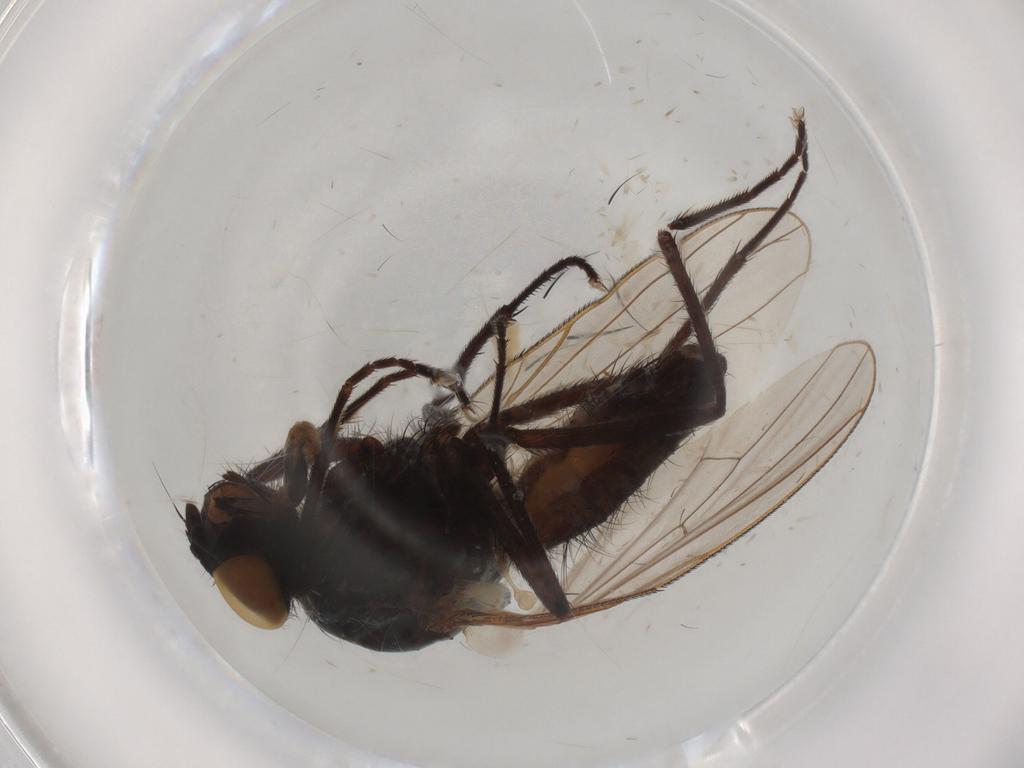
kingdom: Animalia
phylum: Arthropoda
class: Insecta
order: Diptera
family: Anthomyiidae
